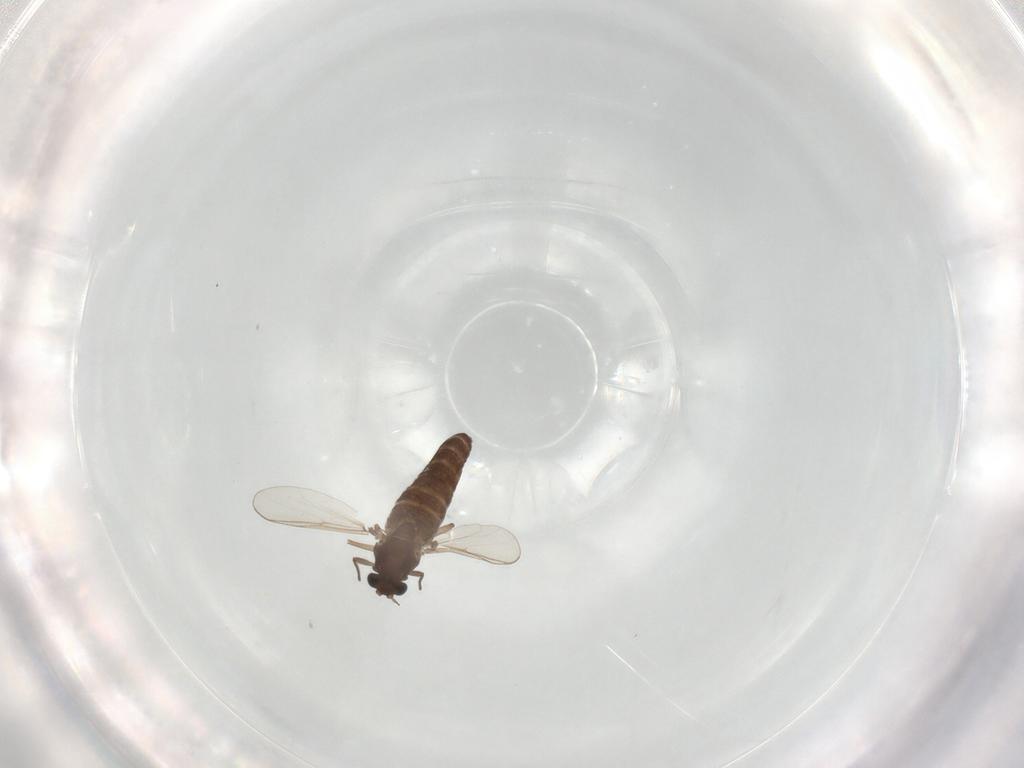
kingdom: Animalia
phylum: Arthropoda
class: Insecta
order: Diptera
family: Chironomidae
